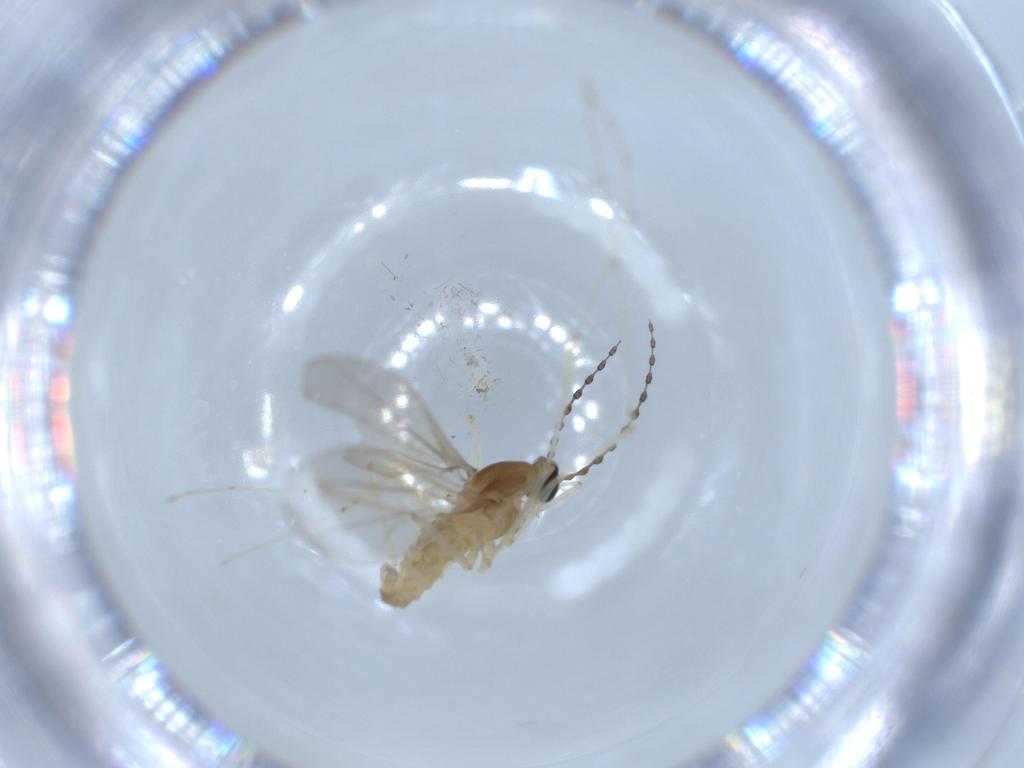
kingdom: Animalia
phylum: Arthropoda
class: Insecta
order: Diptera
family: Cecidomyiidae
